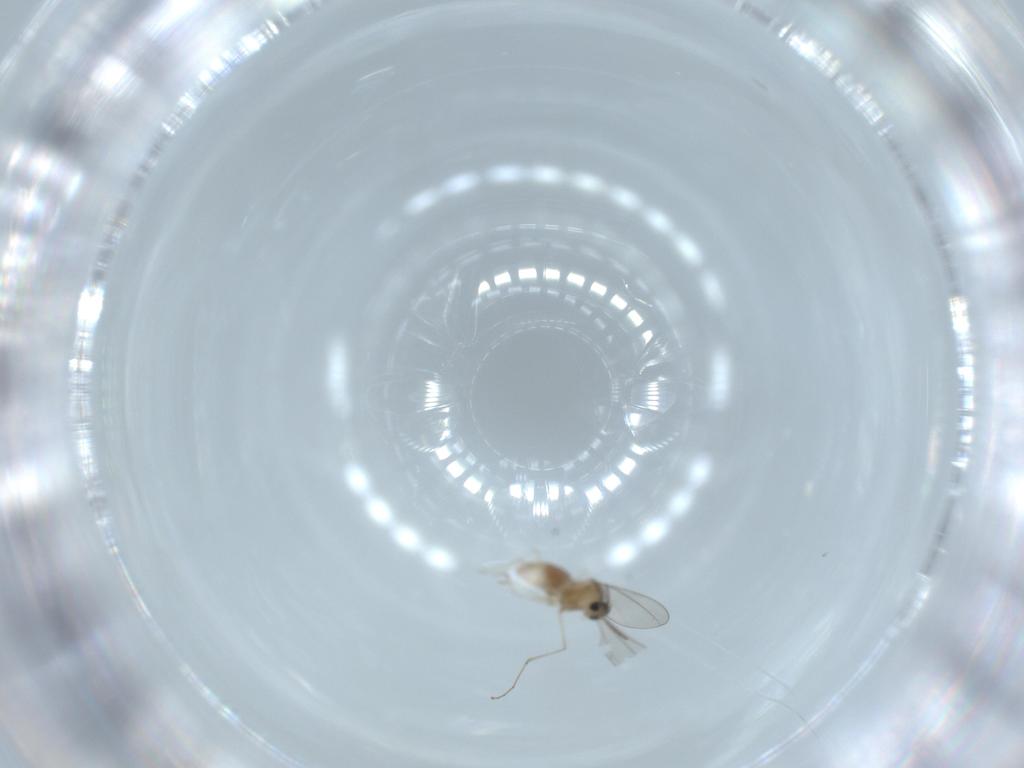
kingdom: Animalia
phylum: Arthropoda
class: Insecta
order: Diptera
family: Cecidomyiidae
